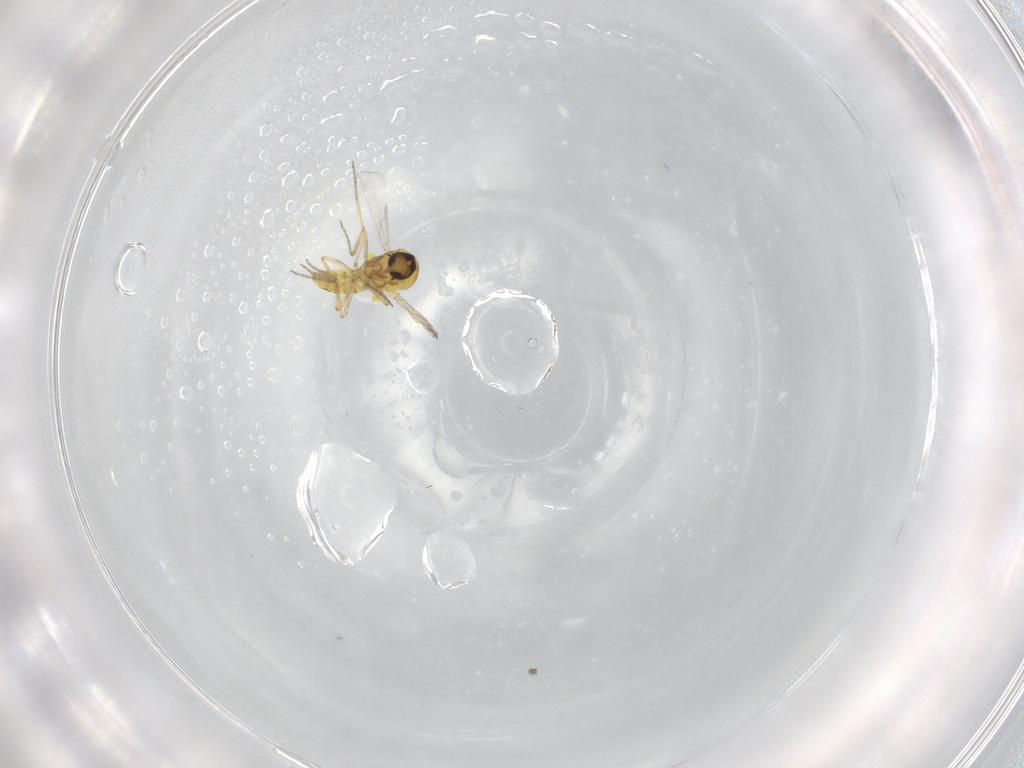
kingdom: Animalia
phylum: Arthropoda
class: Insecta
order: Diptera
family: Ceratopogonidae
